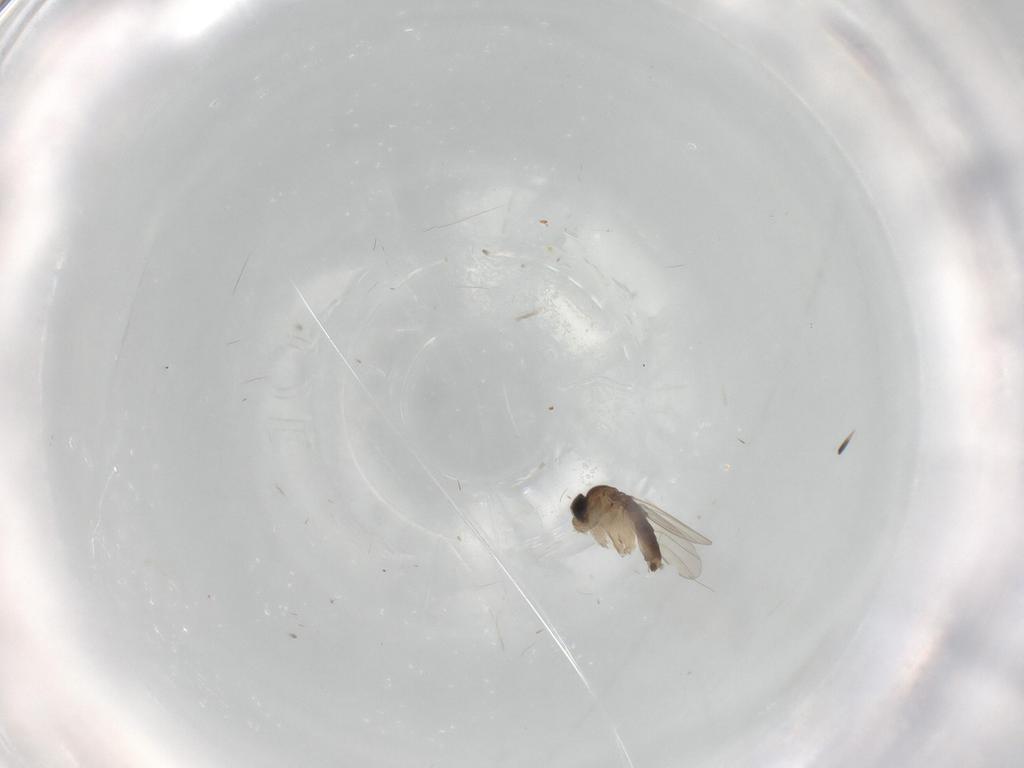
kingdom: Animalia
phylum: Arthropoda
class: Insecta
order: Diptera
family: Phoridae
